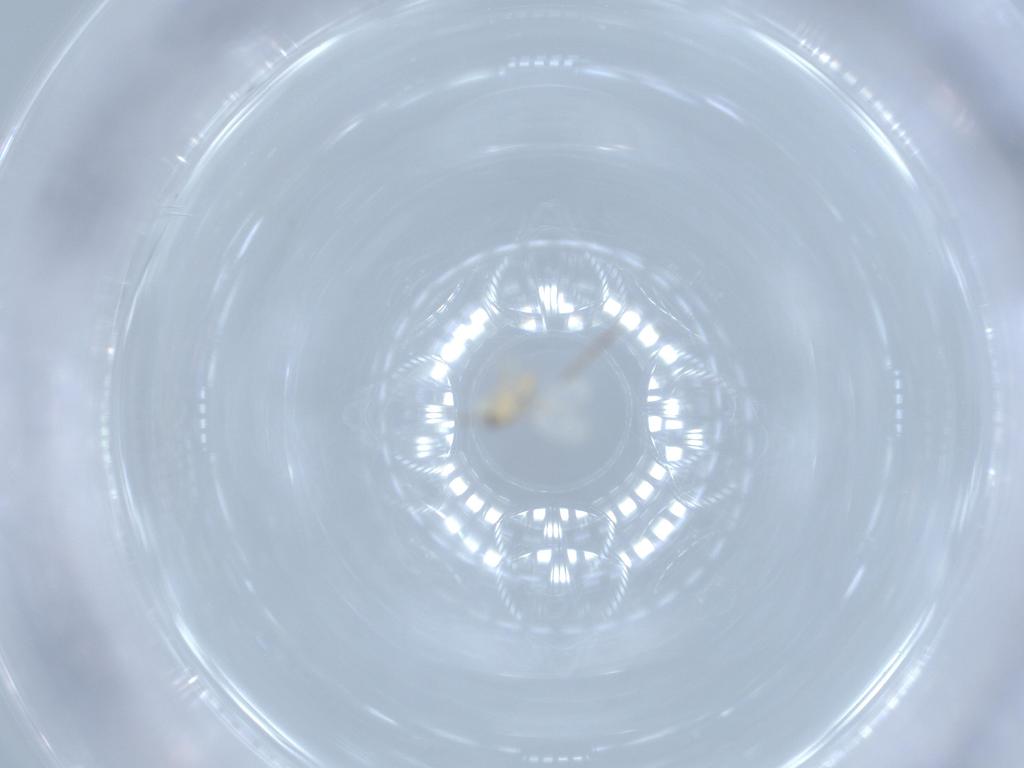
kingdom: Animalia
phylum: Arthropoda
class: Insecta
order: Diptera
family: Cecidomyiidae
